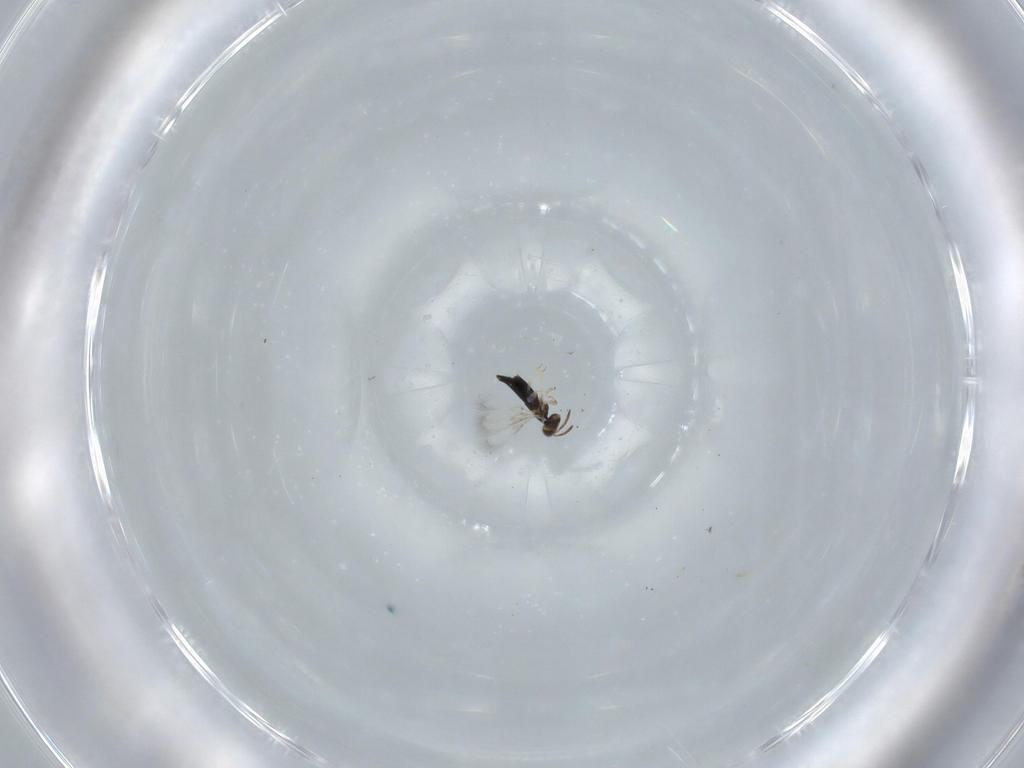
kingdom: Animalia
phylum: Arthropoda
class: Insecta
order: Hymenoptera
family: Signiphoridae
